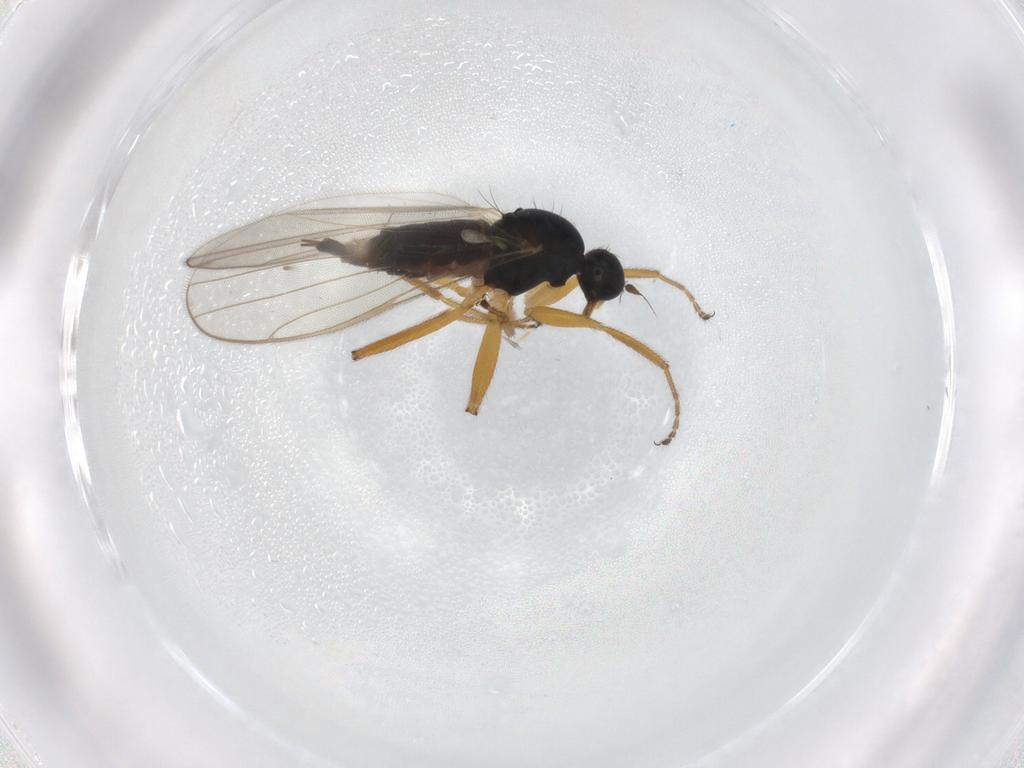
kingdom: Animalia
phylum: Arthropoda
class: Insecta
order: Diptera
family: Hybotidae
